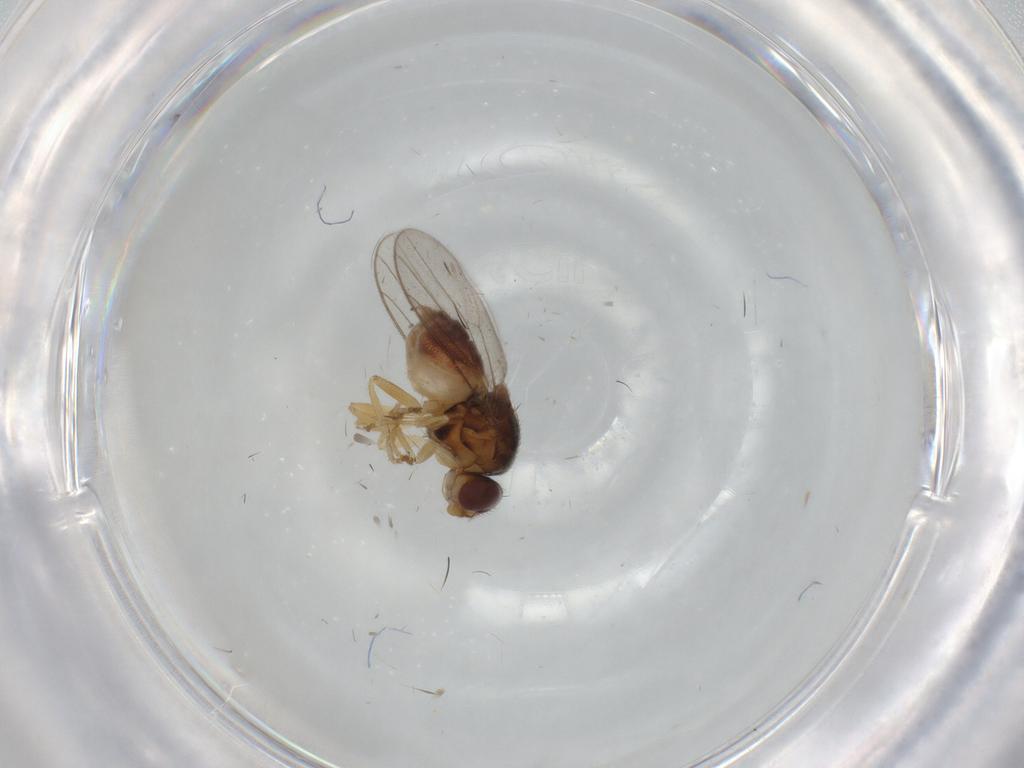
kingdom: Animalia
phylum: Arthropoda
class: Insecta
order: Diptera
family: Chloropidae
